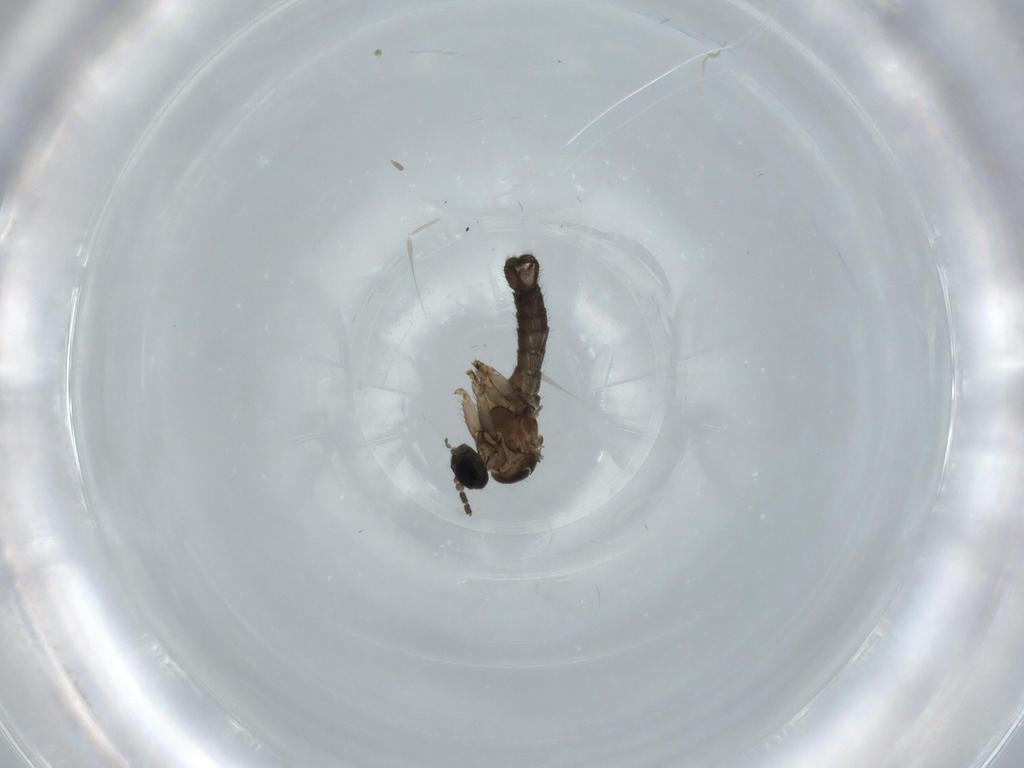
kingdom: Animalia
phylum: Arthropoda
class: Insecta
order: Diptera
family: Sciaridae
